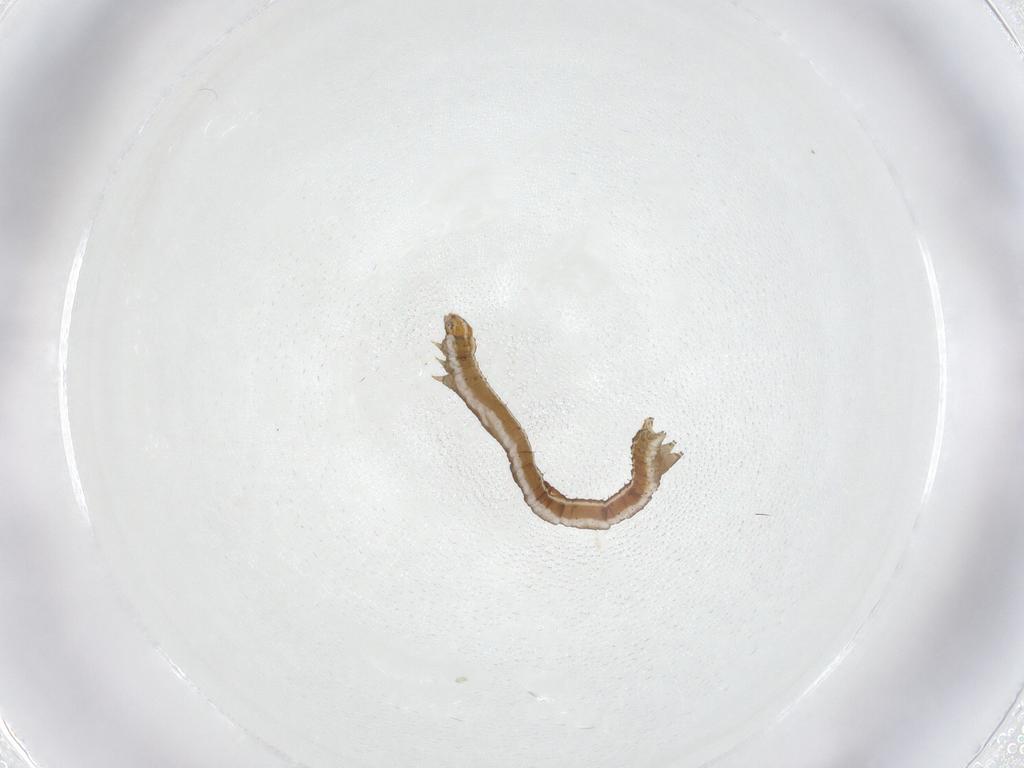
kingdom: Animalia
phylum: Arthropoda
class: Insecta
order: Lepidoptera
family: Geometridae
